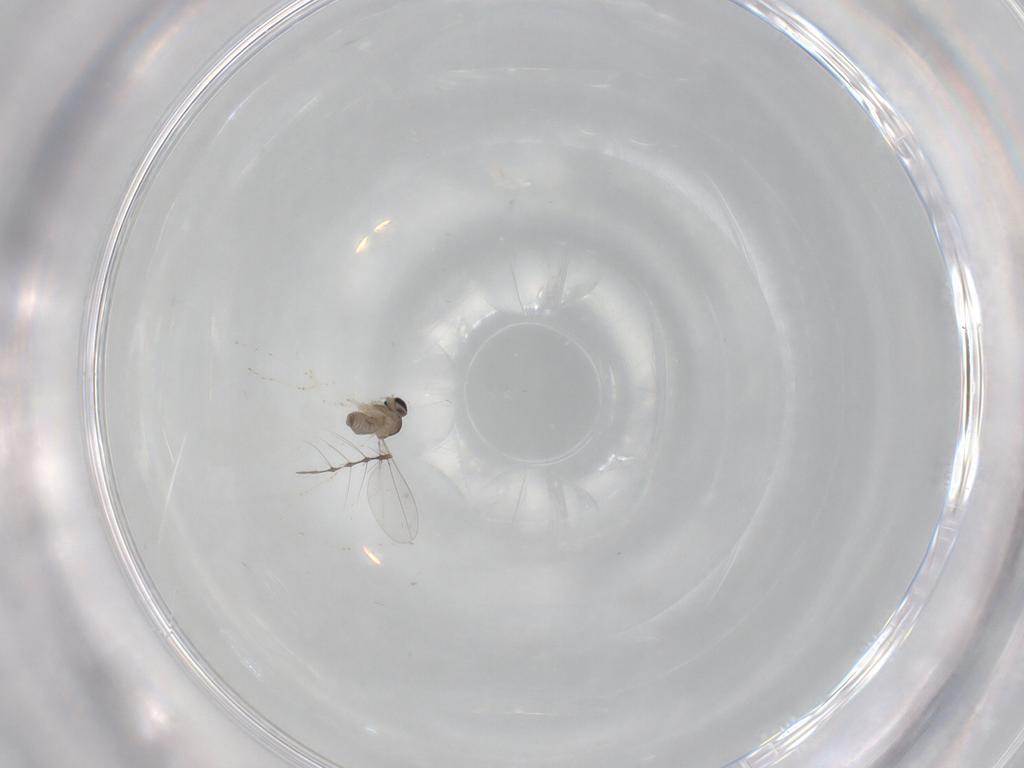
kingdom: Animalia
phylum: Arthropoda
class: Insecta
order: Diptera
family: Cecidomyiidae
